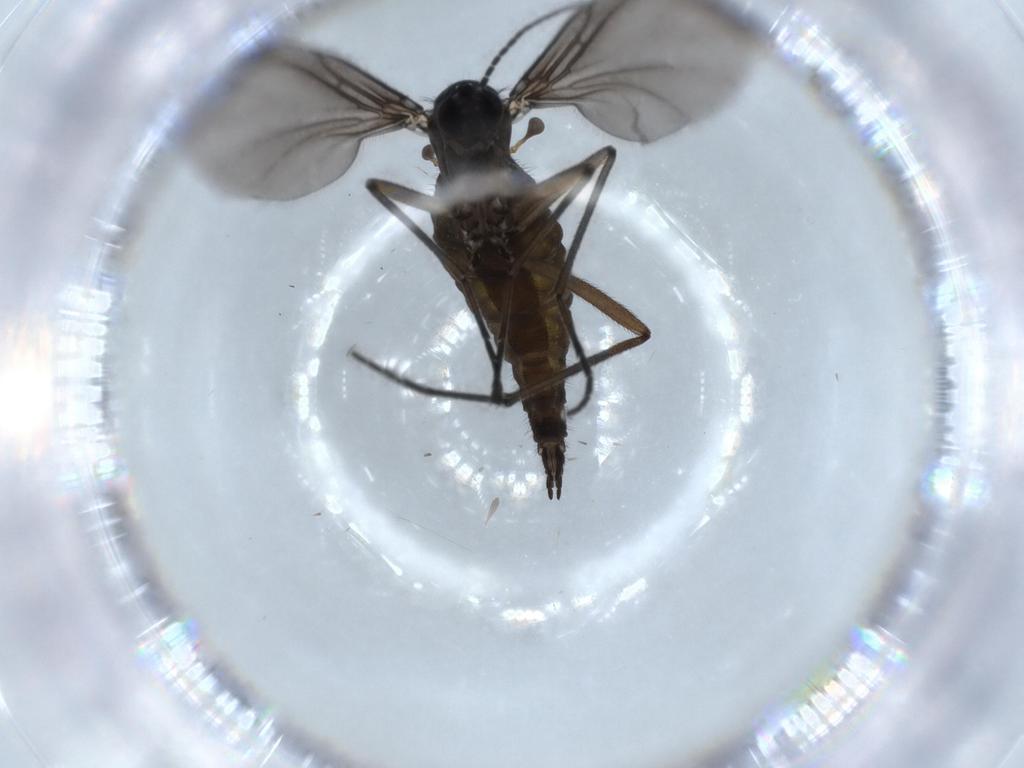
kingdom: Animalia
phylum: Arthropoda
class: Insecta
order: Diptera
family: Sciaridae
